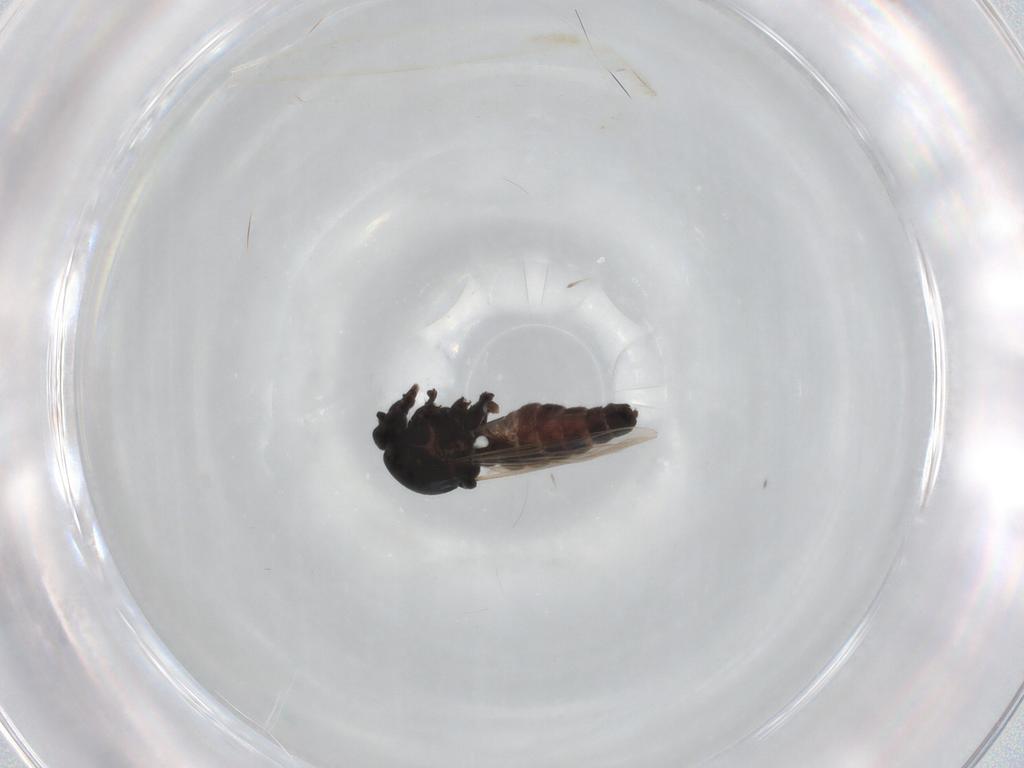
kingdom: Animalia
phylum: Arthropoda
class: Insecta
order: Diptera
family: Ceratopogonidae
